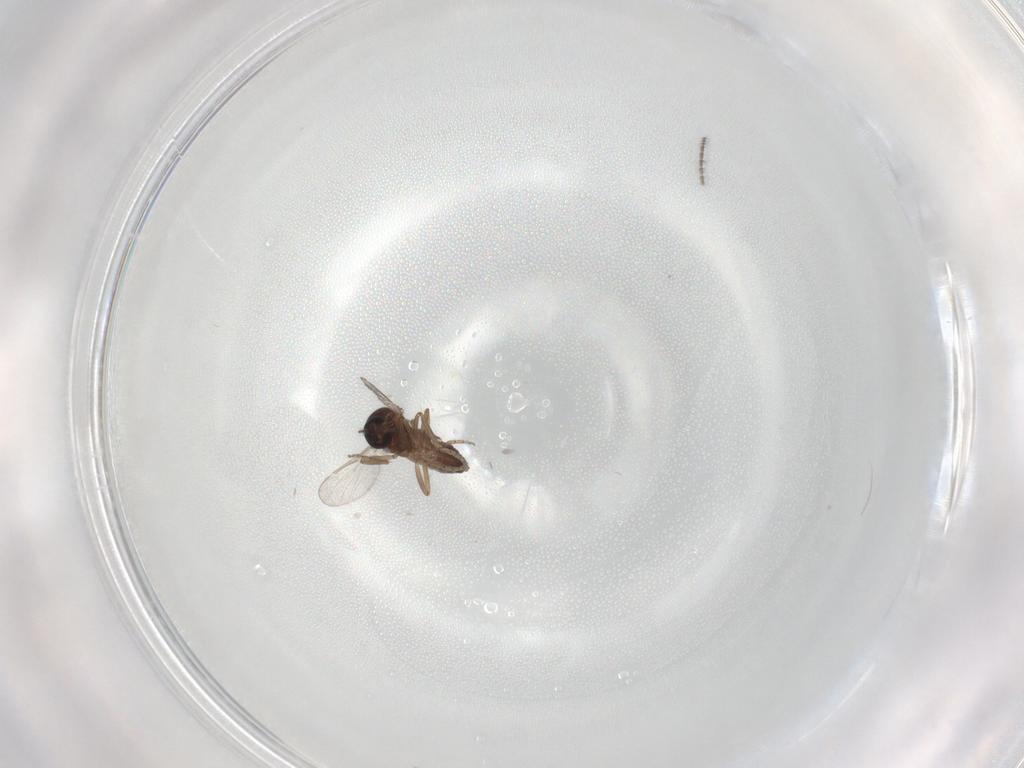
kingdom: Animalia
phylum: Arthropoda
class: Insecta
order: Diptera
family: Ceratopogonidae
